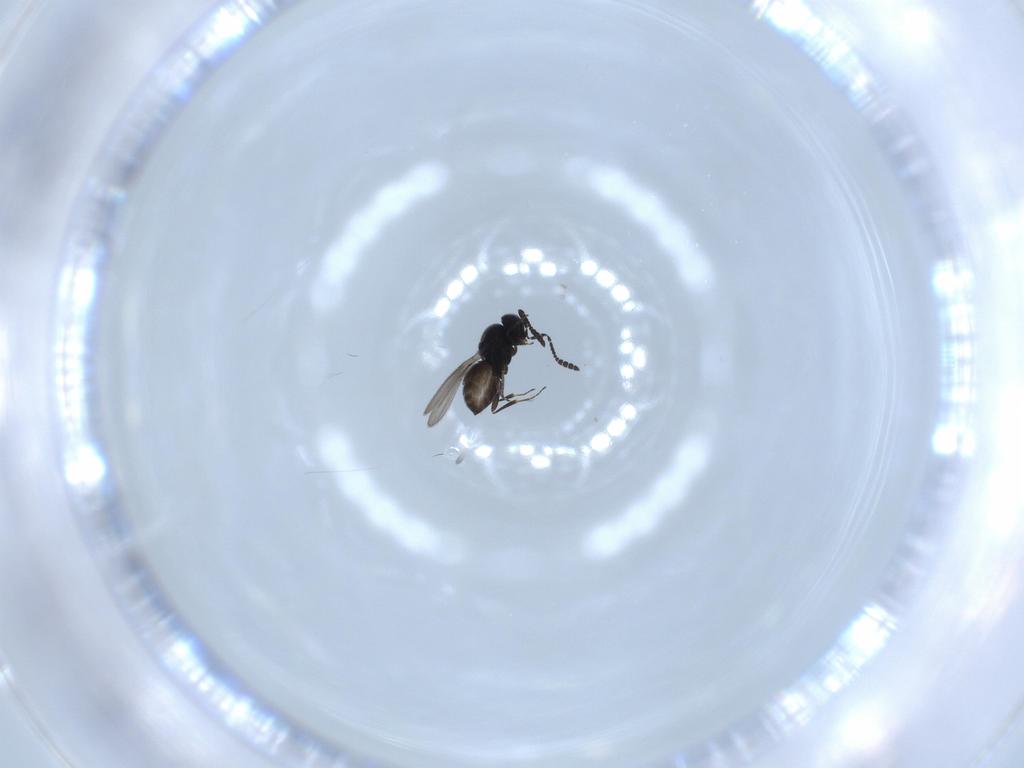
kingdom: Animalia
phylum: Arthropoda
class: Insecta
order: Hymenoptera
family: Scelionidae
